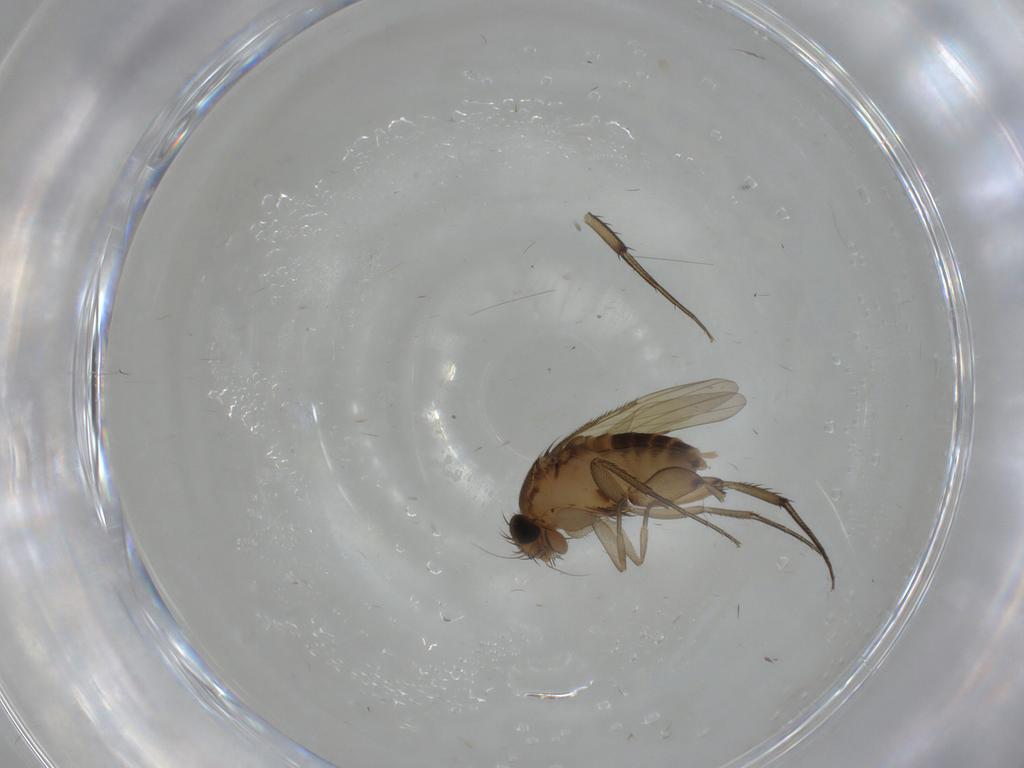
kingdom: Animalia
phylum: Arthropoda
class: Insecta
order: Diptera
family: Phoridae
